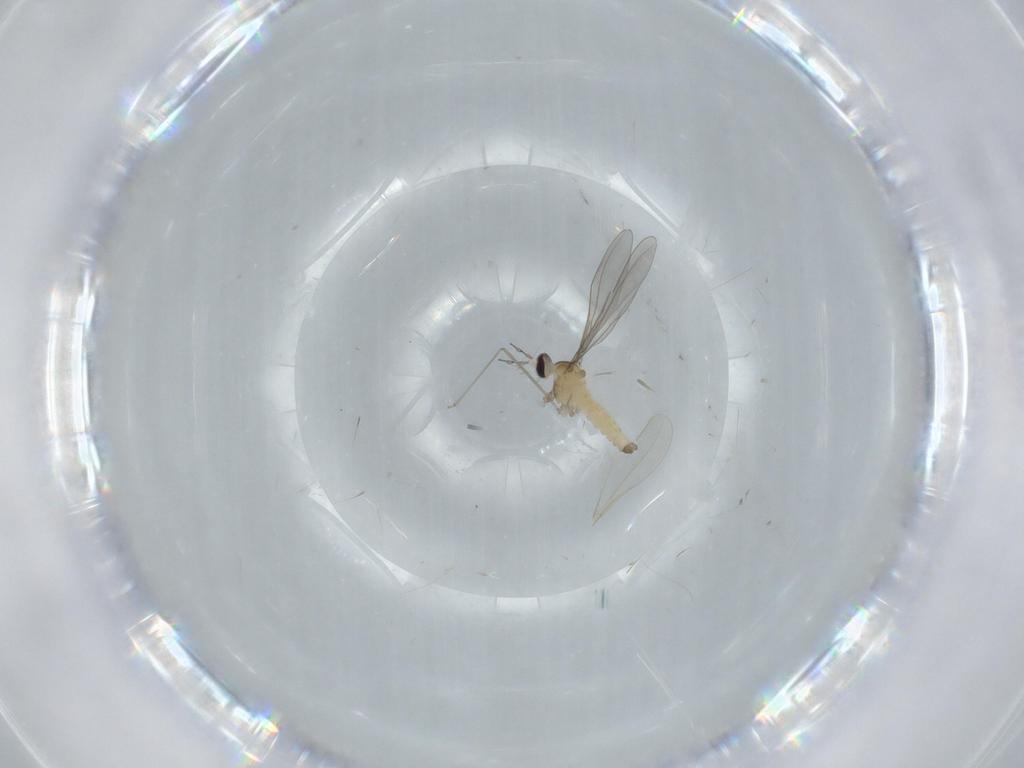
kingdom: Animalia
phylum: Arthropoda
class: Insecta
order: Diptera
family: Cecidomyiidae
